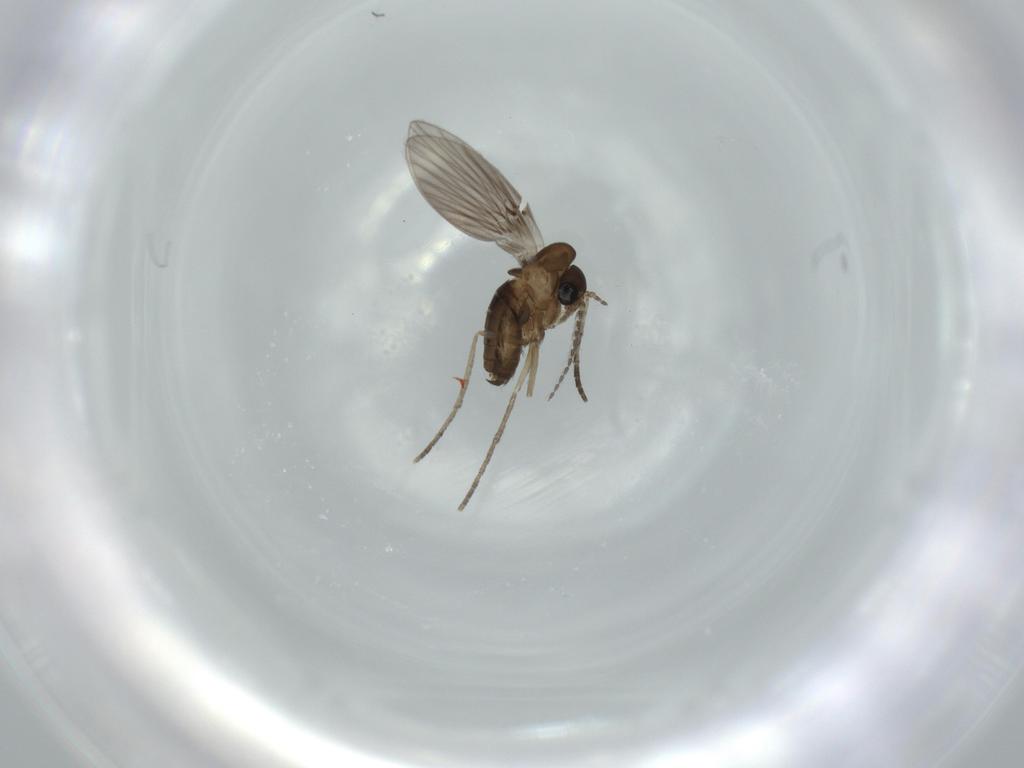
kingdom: Animalia
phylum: Arthropoda
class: Insecta
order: Diptera
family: Psychodidae
